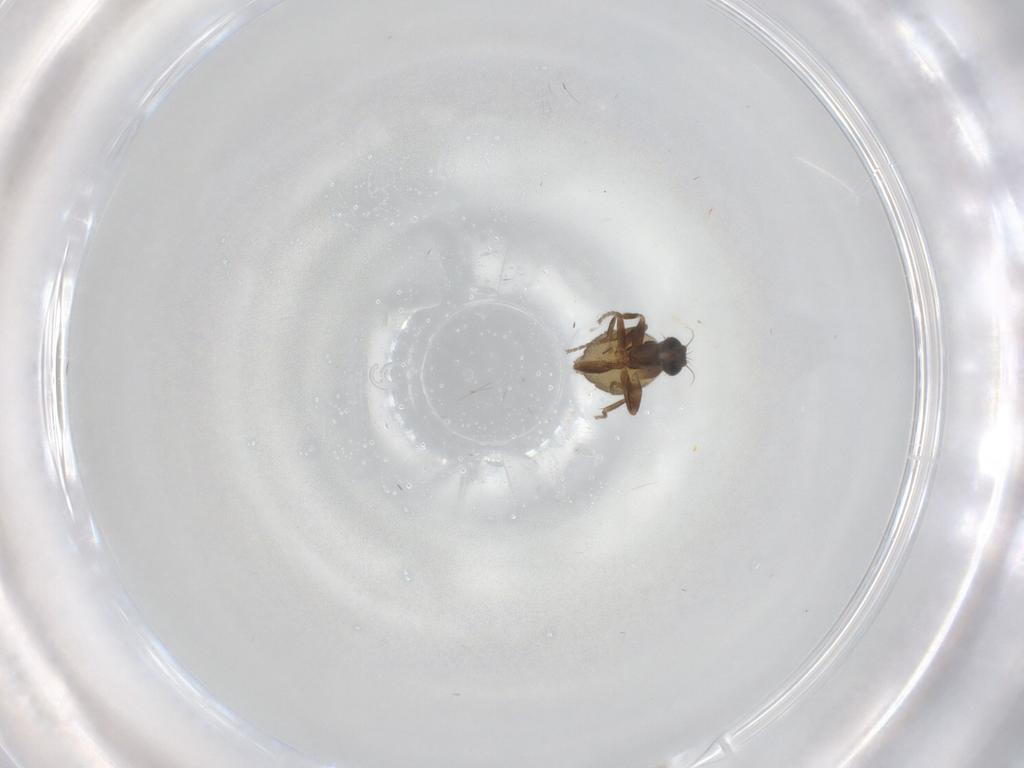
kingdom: Animalia
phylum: Arthropoda
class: Insecta
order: Diptera
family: Phoridae
